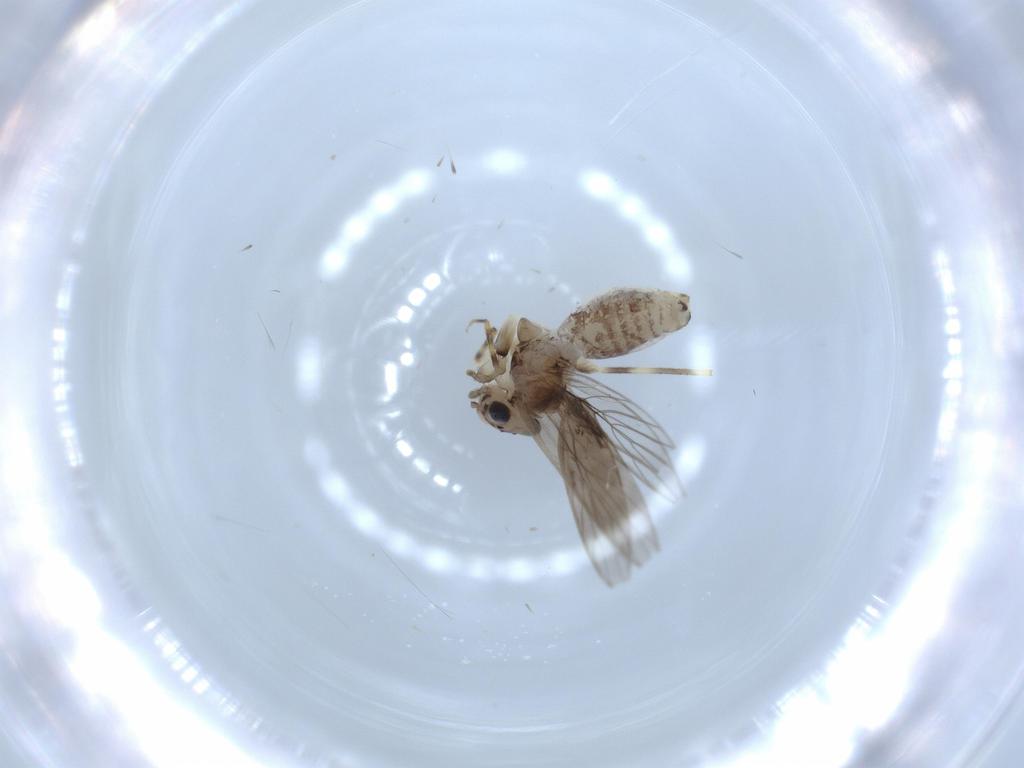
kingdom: Animalia
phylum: Arthropoda
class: Insecta
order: Psocodea
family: Lepidopsocidae
